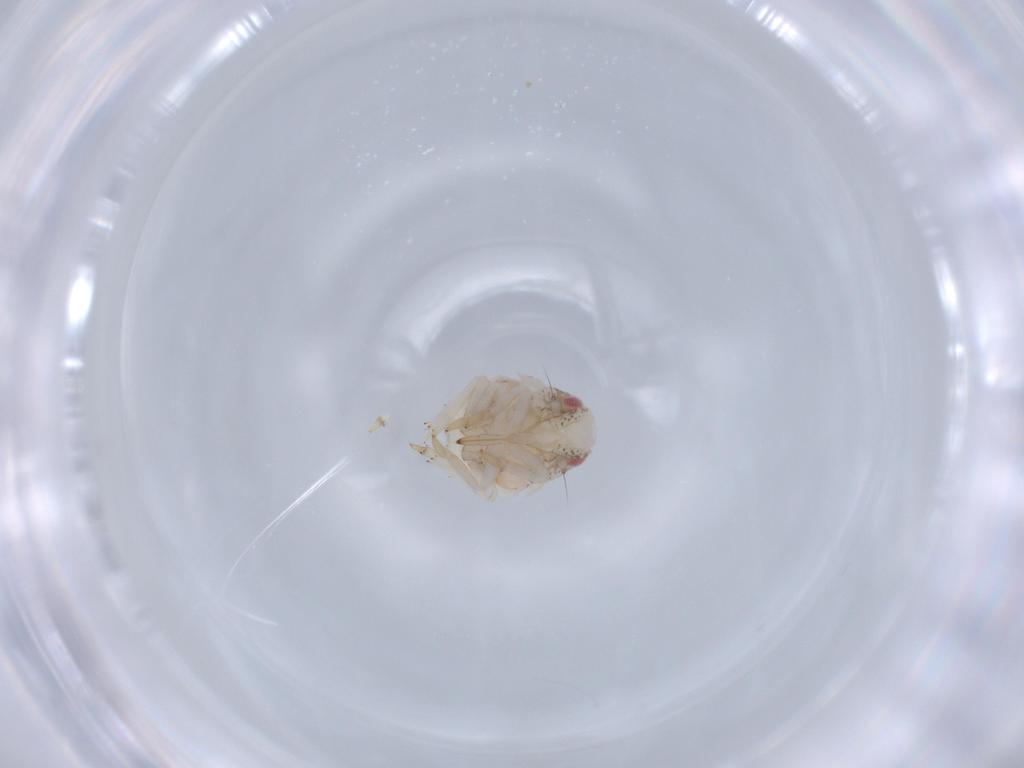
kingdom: Animalia
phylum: Arthropoda
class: Insecta
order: Hemiptera
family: Acanaloniidae
